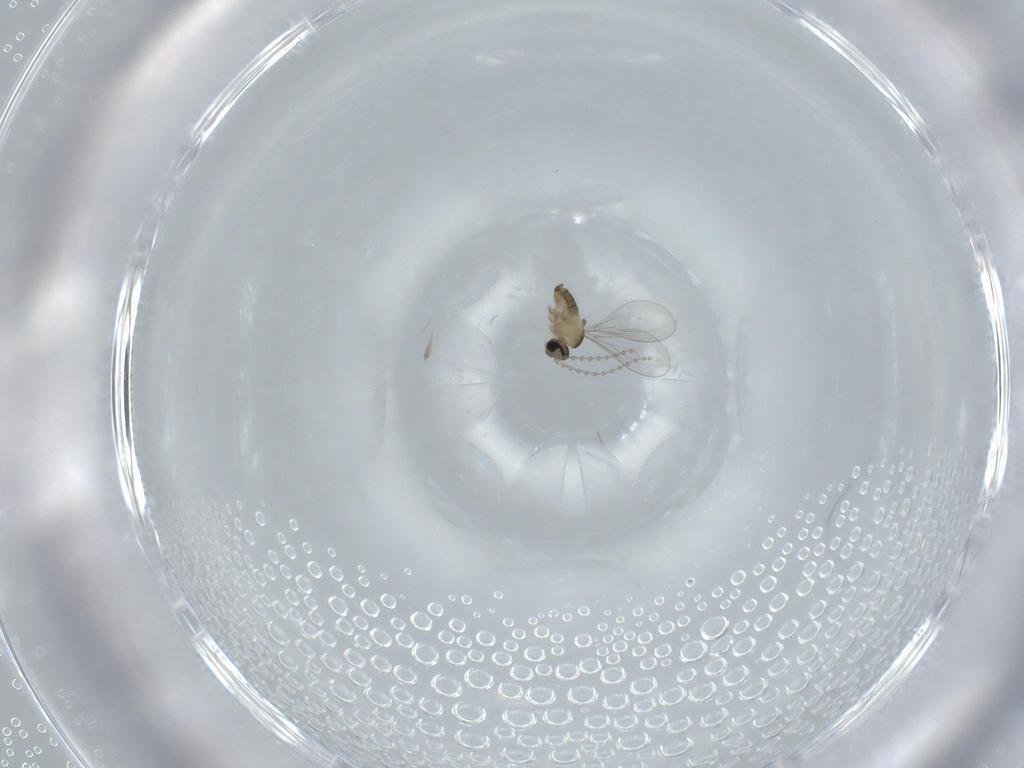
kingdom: Animalia
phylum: Arthropoda
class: Insecta
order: Diptera
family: Cecidomyiidae
